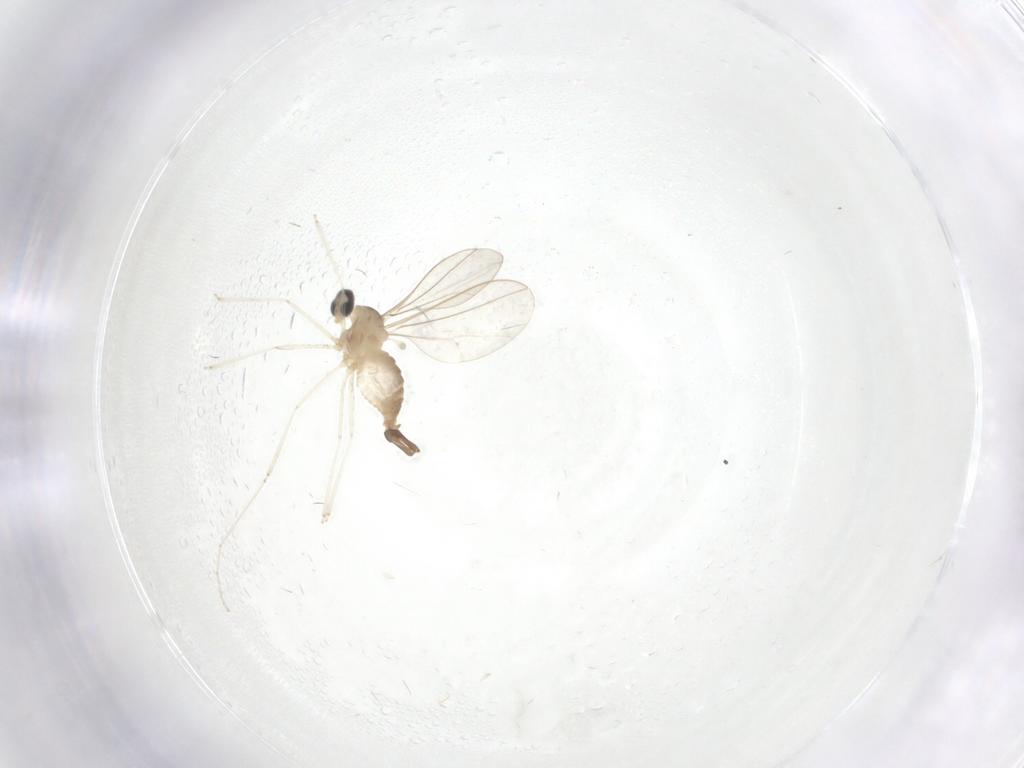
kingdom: Animalia
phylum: Arthropoda
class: Insecta
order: Diptera
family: Cecidomyiidae
